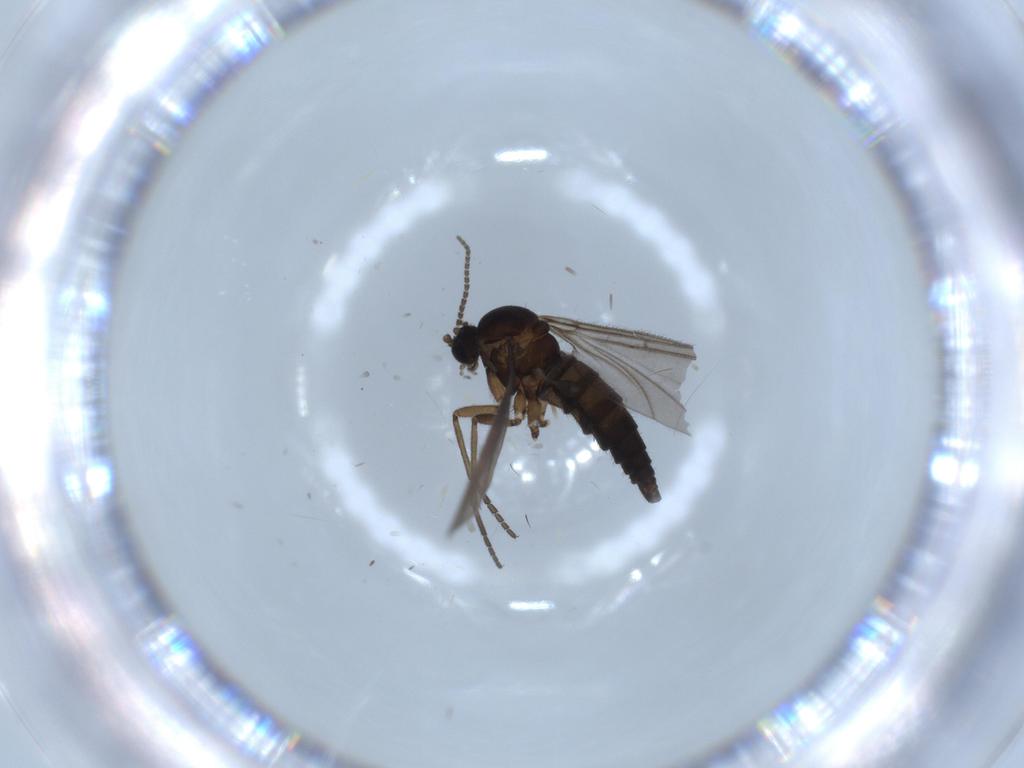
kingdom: Animalia
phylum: Arthropoda
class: Insecta
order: Diptera
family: Sciaridae
